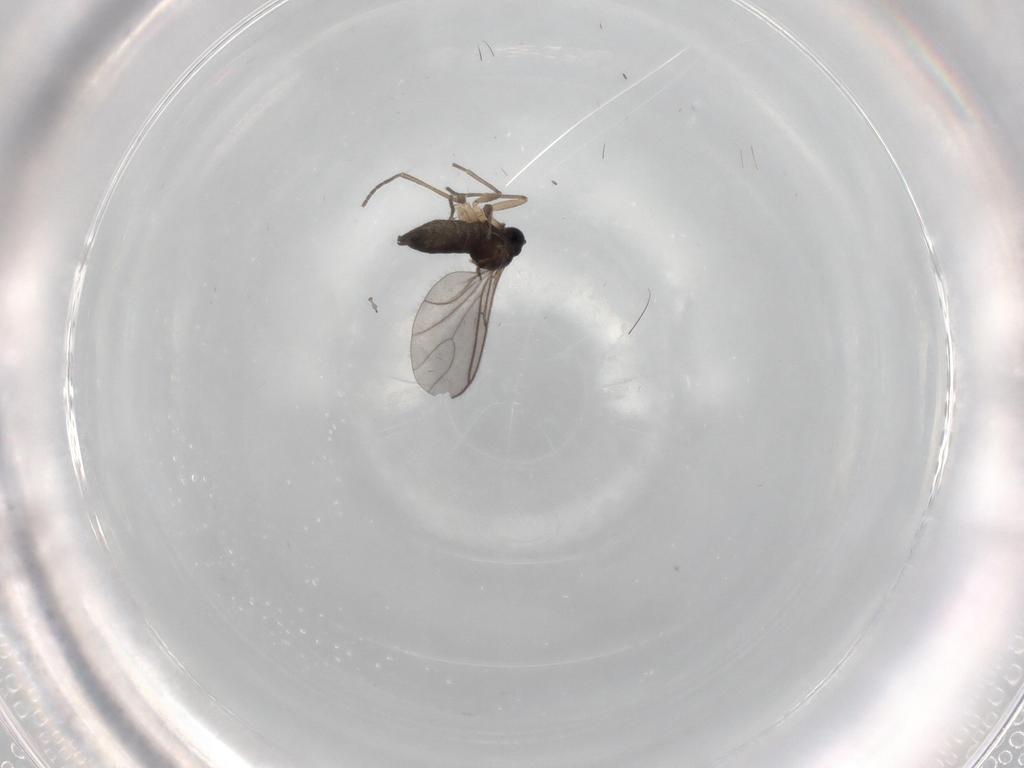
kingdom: Animalia
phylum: Arthropoda
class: Insecta
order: Diptera
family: Sciaridae
